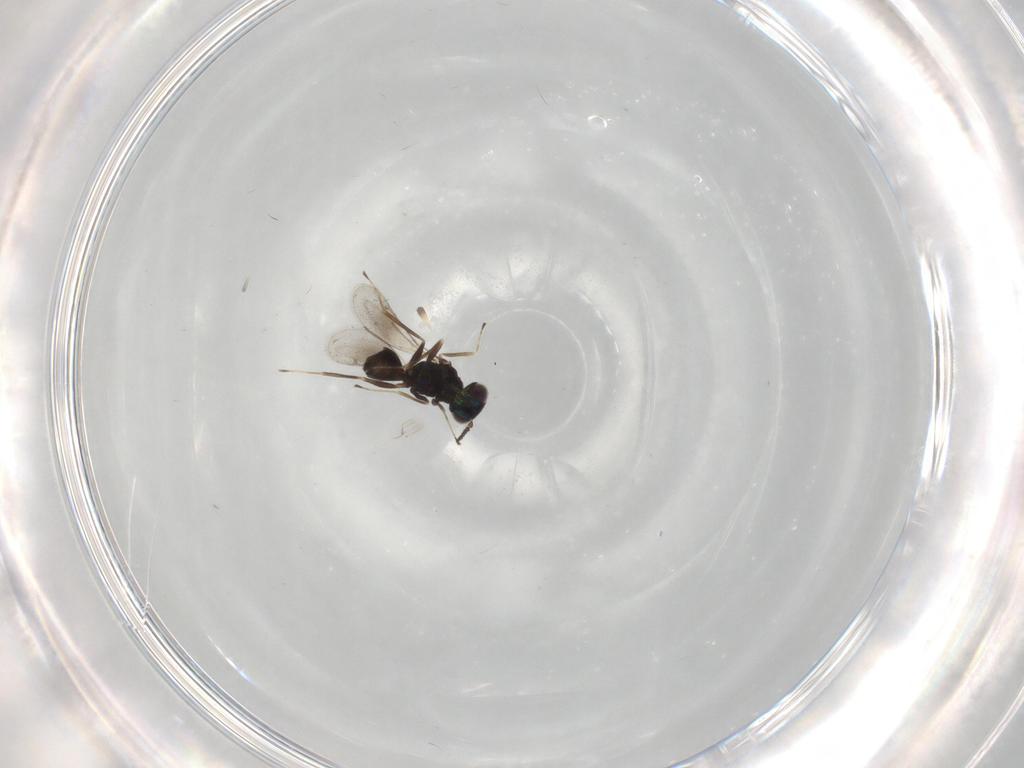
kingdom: Animalia
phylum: Arthropoda
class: Insecta
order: Hymenoptera
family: Eulophidae
